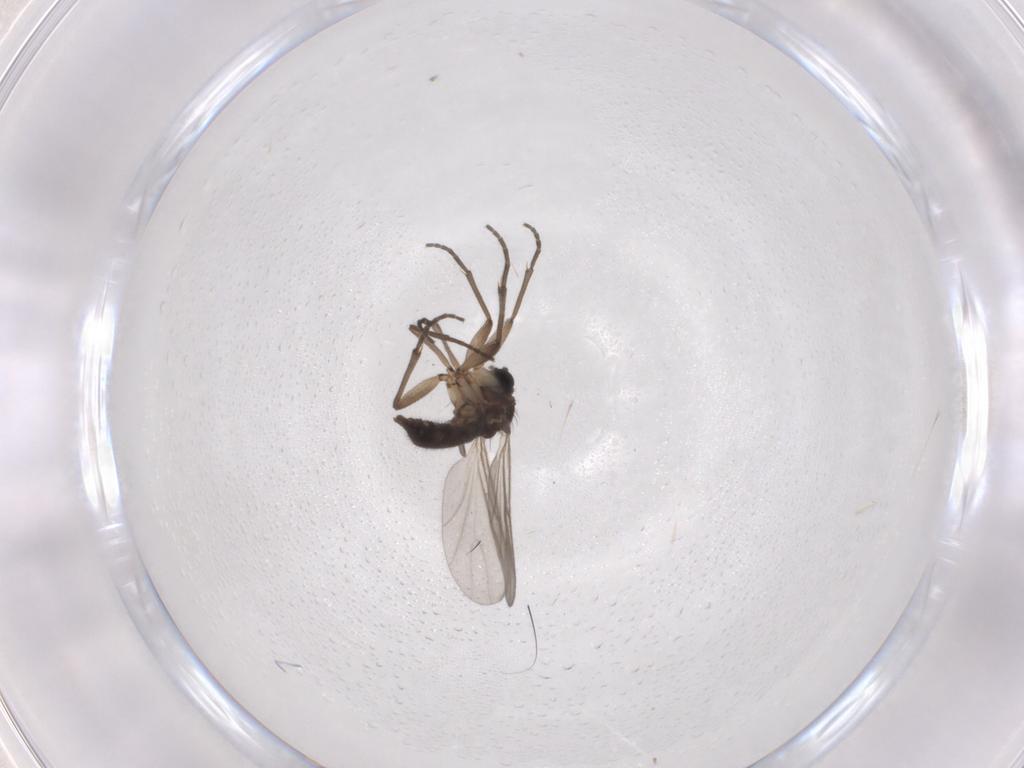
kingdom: Animalia
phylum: Arthropoda
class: Insecta
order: Diptera
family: Sciaridae
